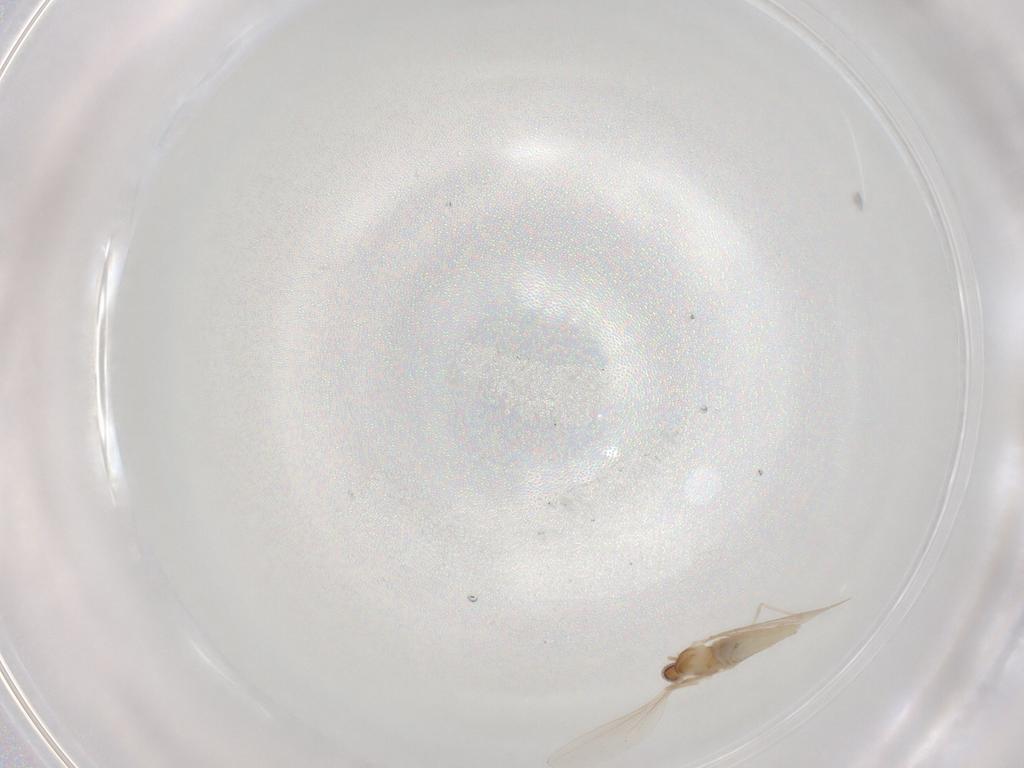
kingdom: Animalia
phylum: Arthropoda
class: Insecta
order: Diptera
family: Cecidomyiidae
